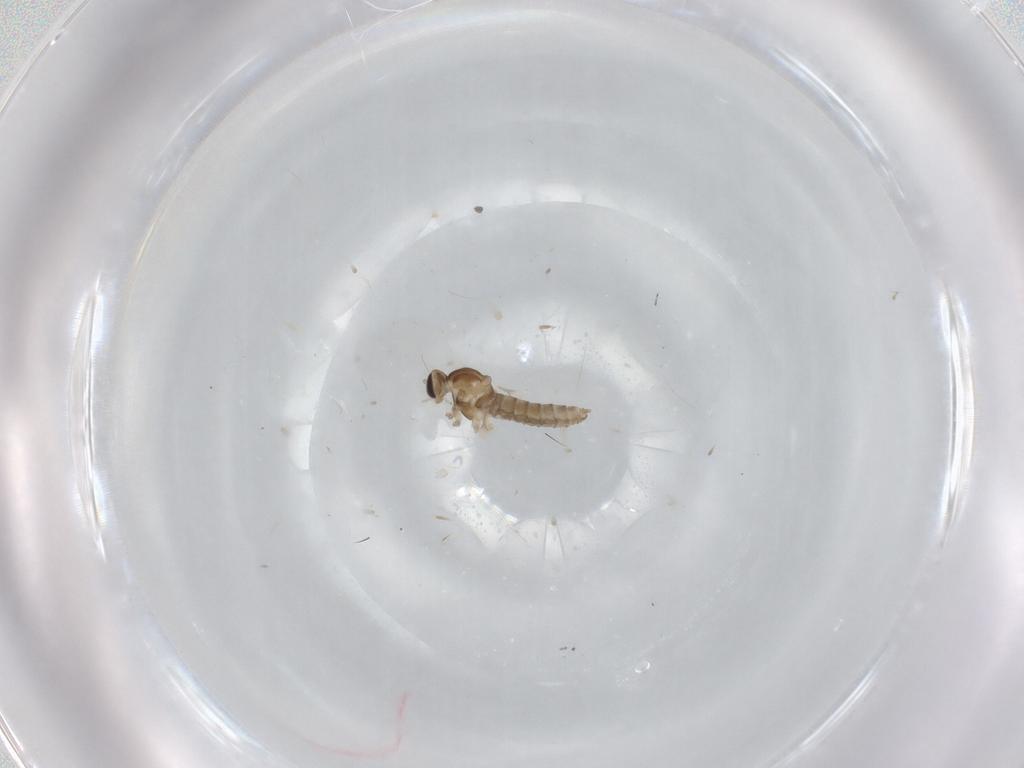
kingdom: Animalia
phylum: Arthropoda
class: Insecta
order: Diptera
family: Cecidomyiidae
